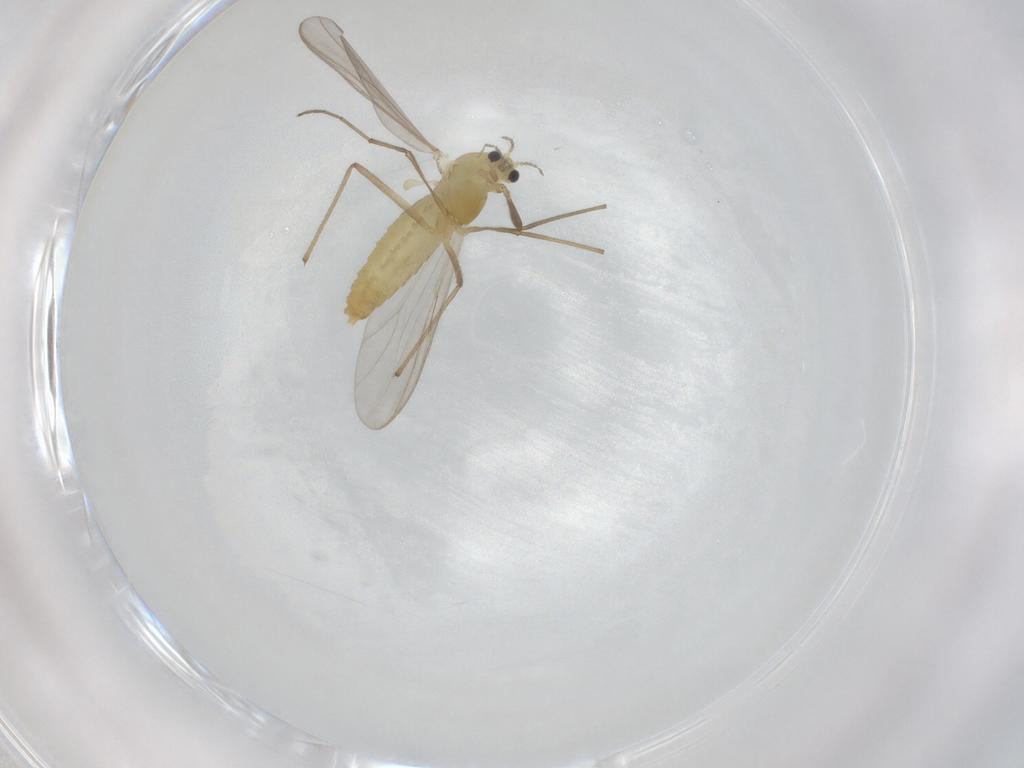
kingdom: Animalia
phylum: Arthropoda
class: Insecta
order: Diptera
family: Chironomidae
